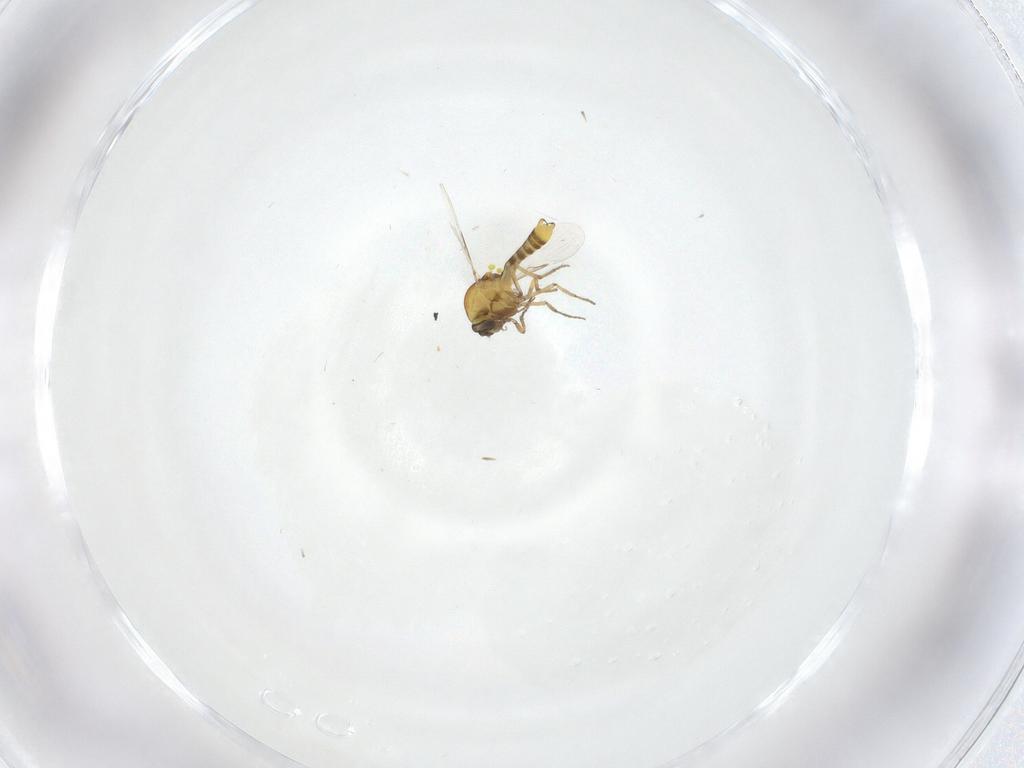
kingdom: Animalia
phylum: Arthropoda
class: Insecta
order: Diptera
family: Ceratopogonidae
